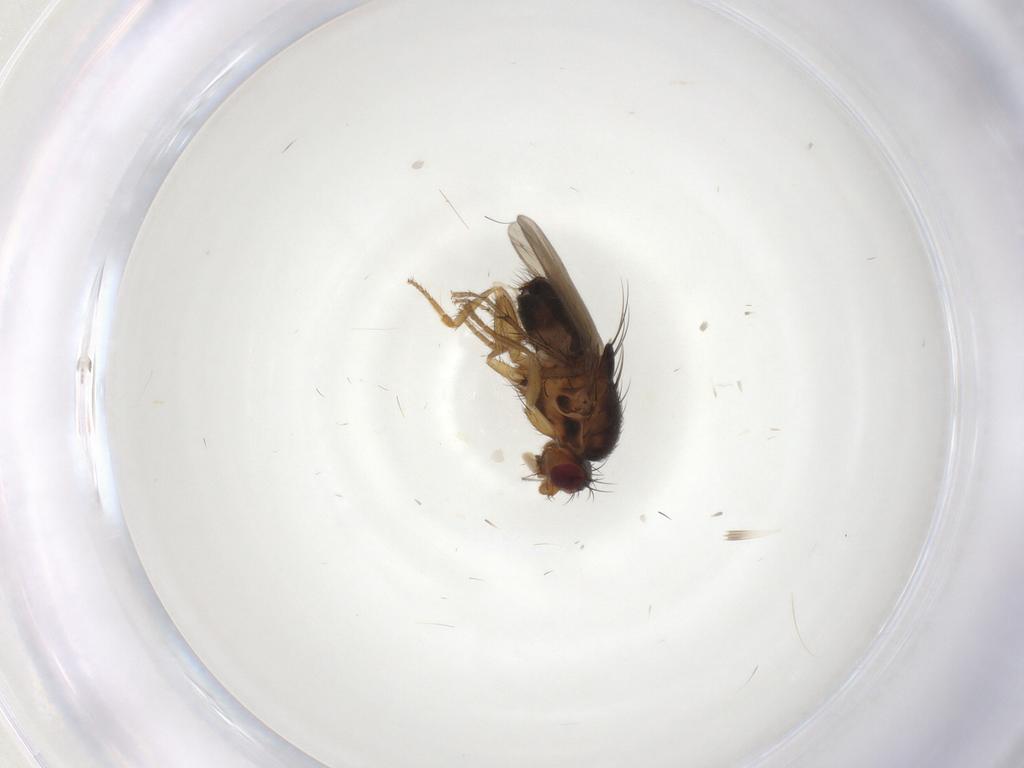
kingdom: Animalia
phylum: Arthropoda
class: Insecta
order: Diptera
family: Sphaeroceridae
